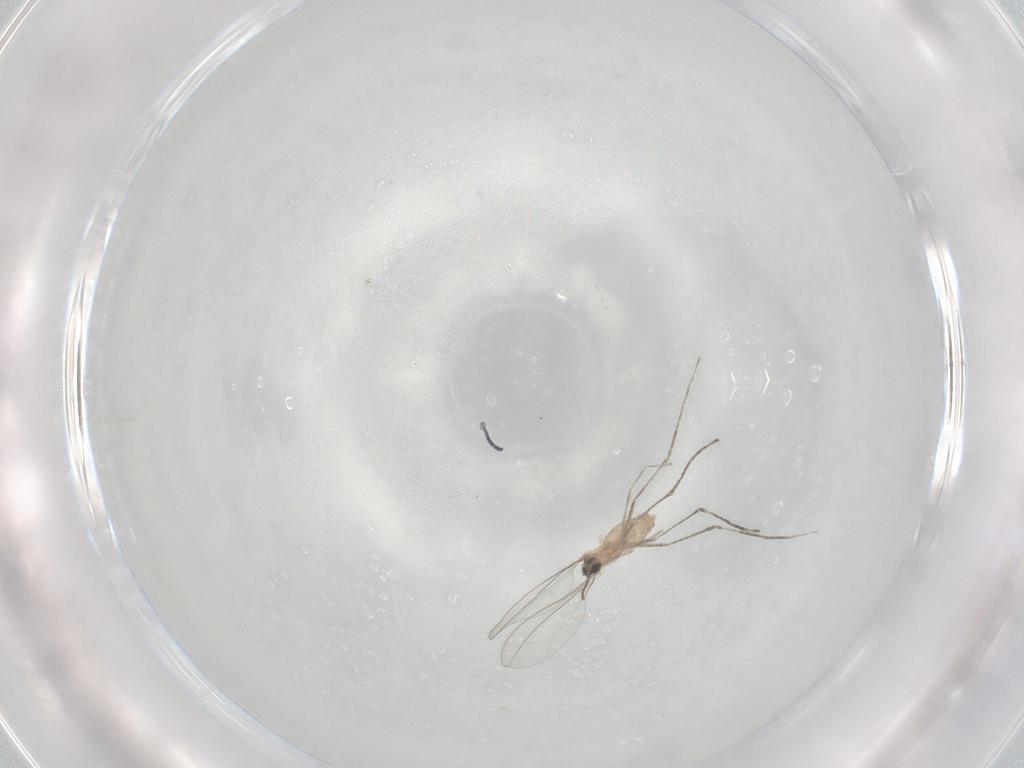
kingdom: Animalia
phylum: Arthropoda
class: Insecta
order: Diptera
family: Cecidomyiidae
